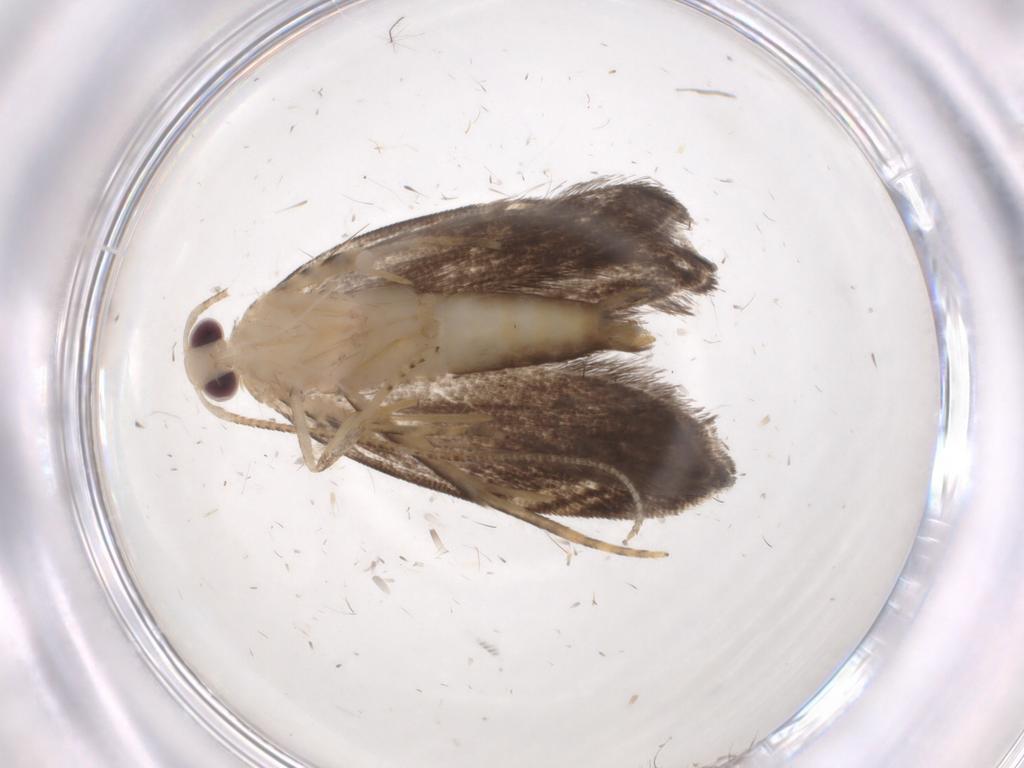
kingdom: Animalia
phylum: Arthropoda
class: Insecta
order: Lepidoptera
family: Gelechiidae
